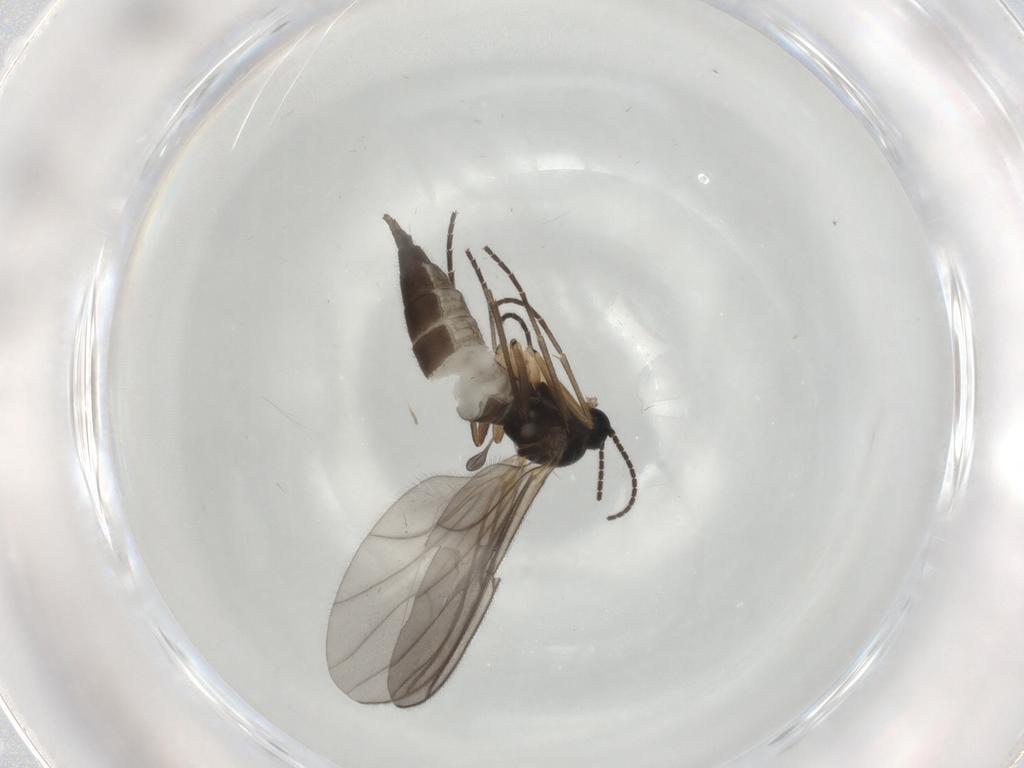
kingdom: Animalia
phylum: Arthropoda
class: Insecta
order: Diptera
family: Sciaridae
